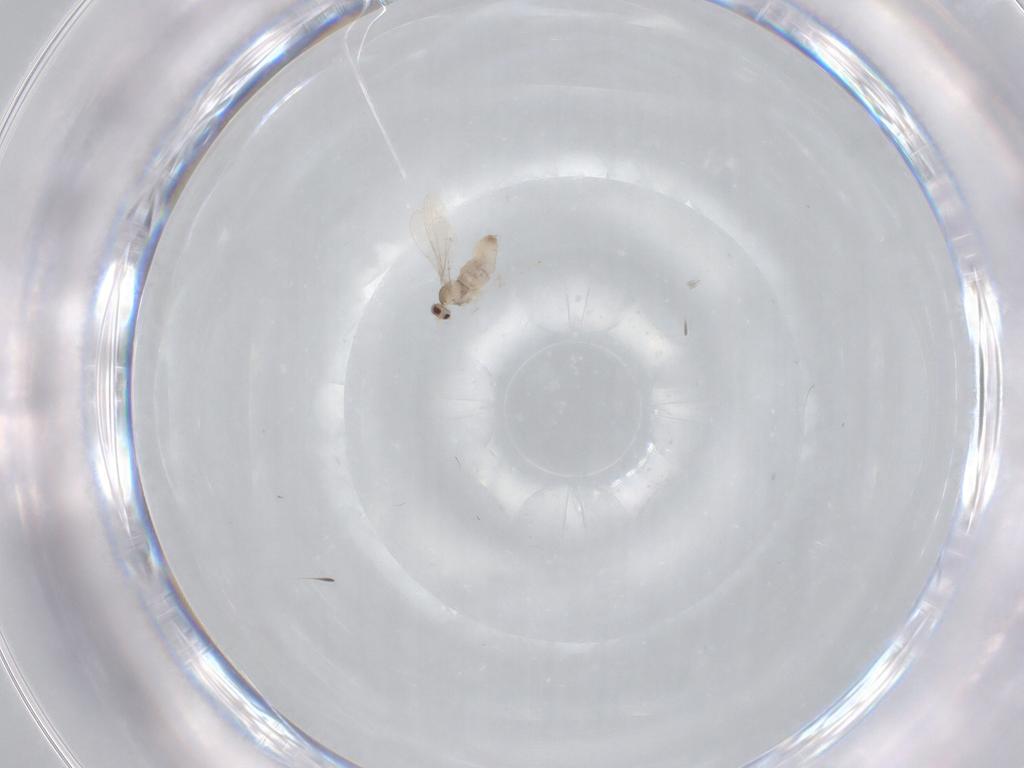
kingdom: Animalia
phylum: Arthropoda
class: Insecta
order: Diptera
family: Cecidomyiidae
